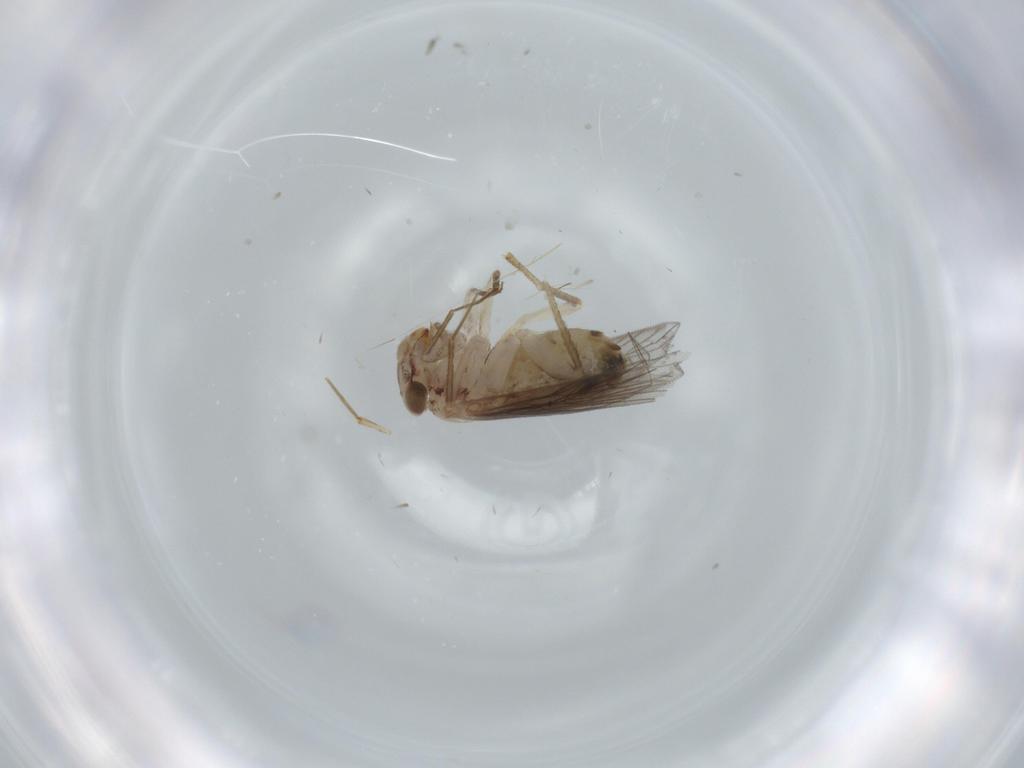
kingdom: Animalia
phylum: Arthropoda
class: Insecta
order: Psocodea
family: Lepidopsocidae
